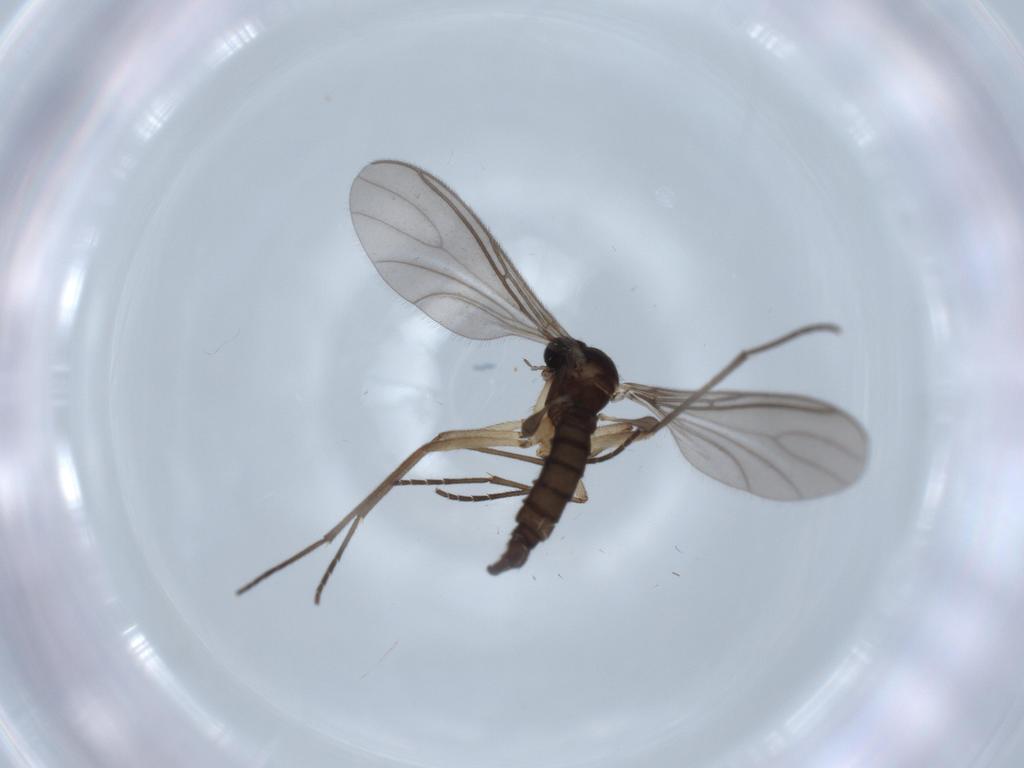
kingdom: Animalia
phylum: Arthropoda
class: Insecta
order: Diptera
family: Sciaridae
